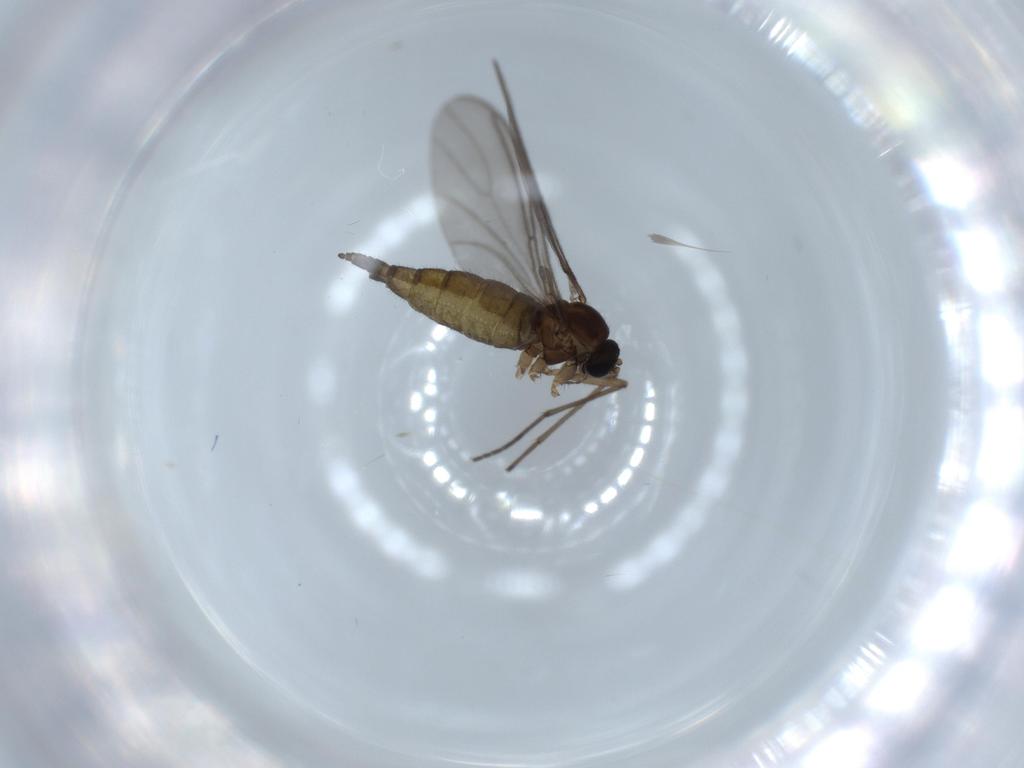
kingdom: Animalia
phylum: Arthropoda
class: Insecta
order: Diptera
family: Sciaridae
